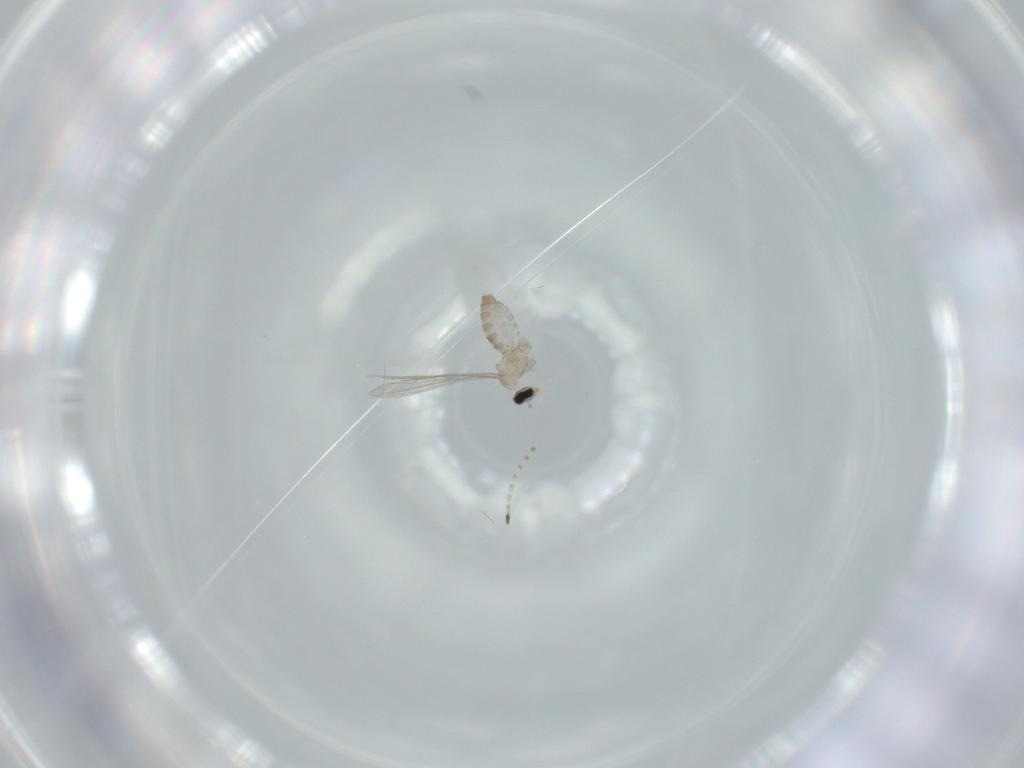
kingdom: Animalia
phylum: Arthropoda
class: Insecta
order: Diptera
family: Cecidomyiidae
